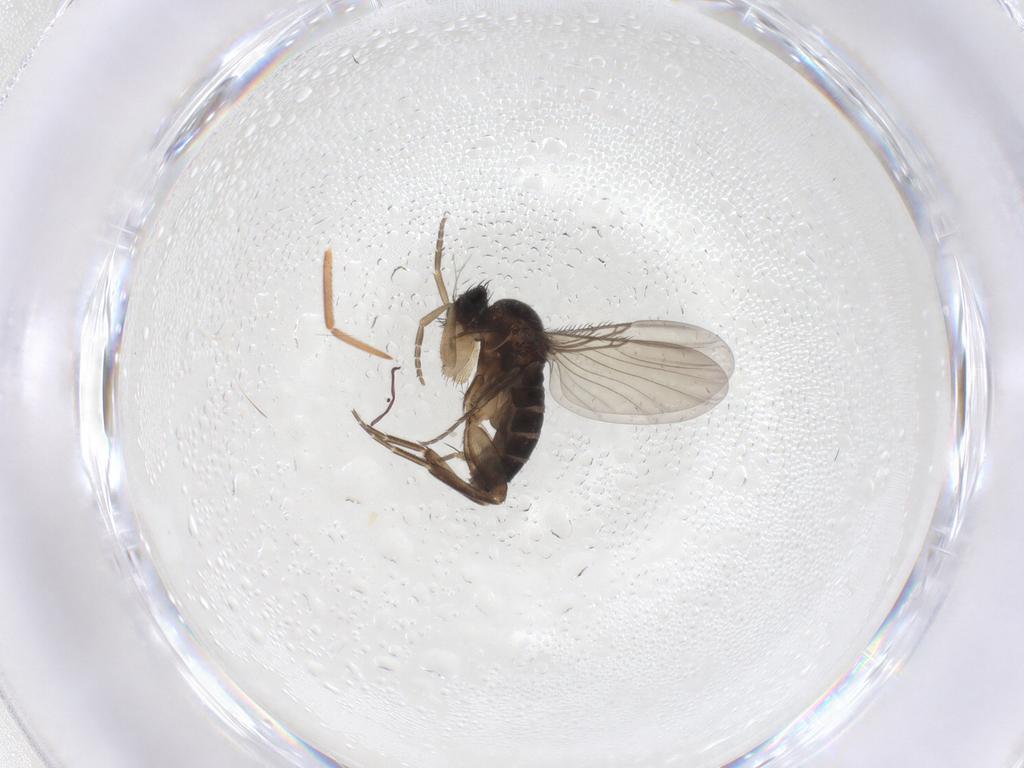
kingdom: Animalia
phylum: Arthropoda
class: Insecta
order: Diptera
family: Phoridae
